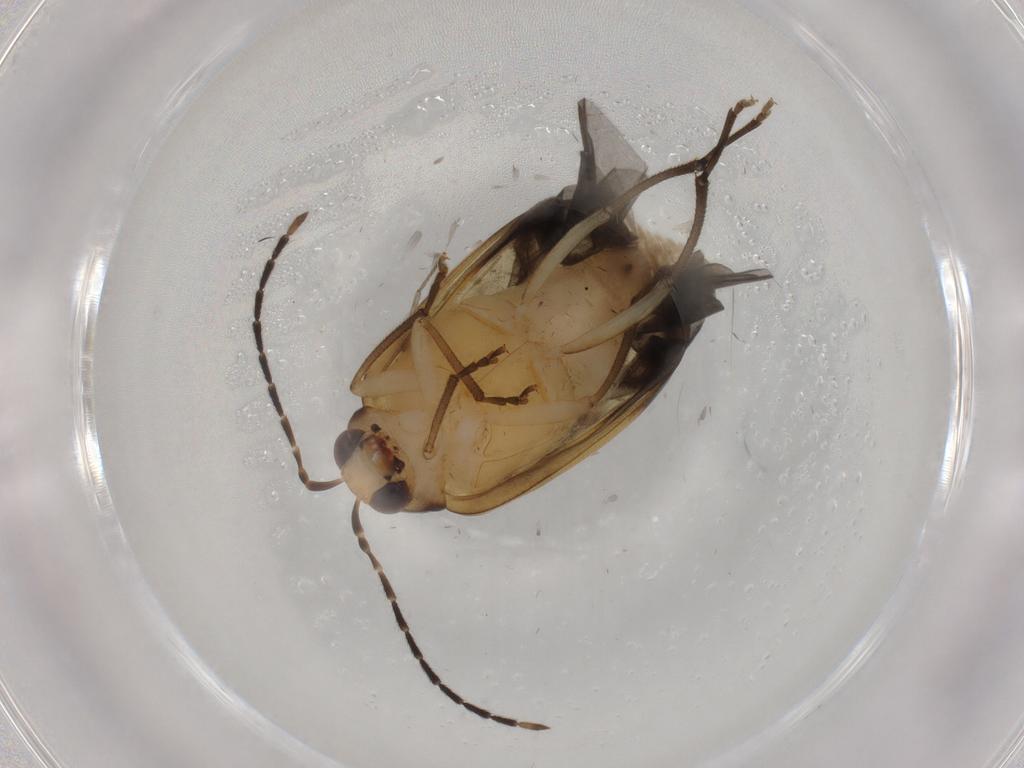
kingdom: Animalia
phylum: Arthropoda
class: Insecta
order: Coleoptera
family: Chrysomelidae
